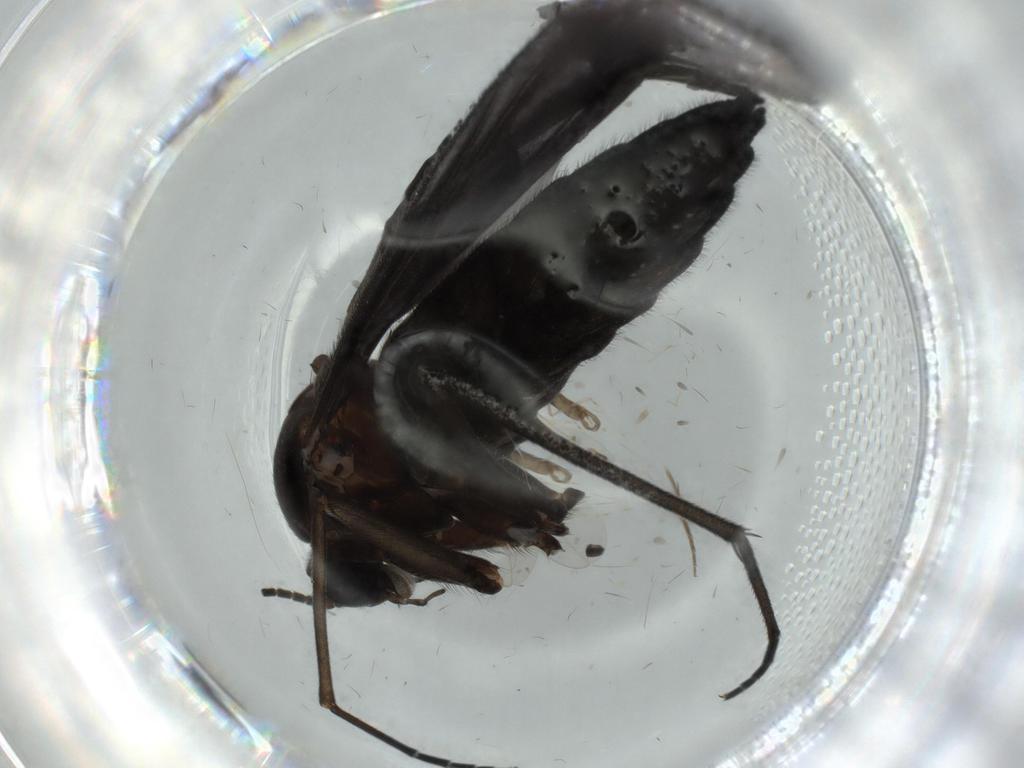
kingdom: Animalia
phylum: Arthropoda
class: Insecta
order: Diptera
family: Cecidomyiidae
